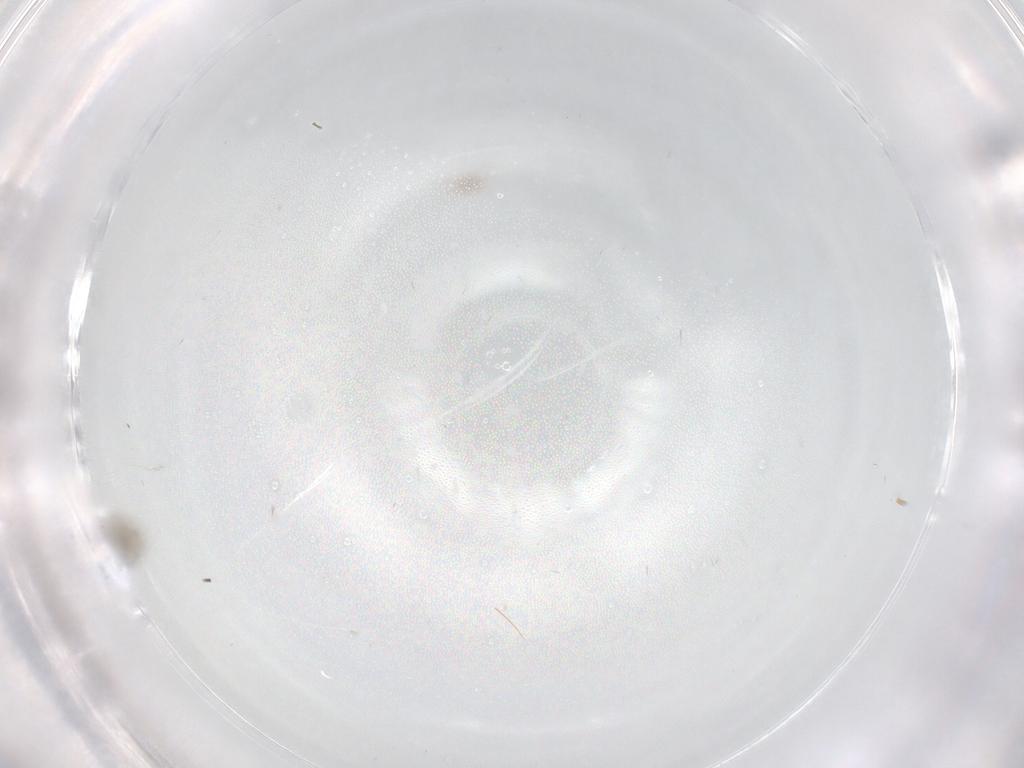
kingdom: Animalia
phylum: Arthropoda
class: Insecta
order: Diptera
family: Cecidomyiidae
